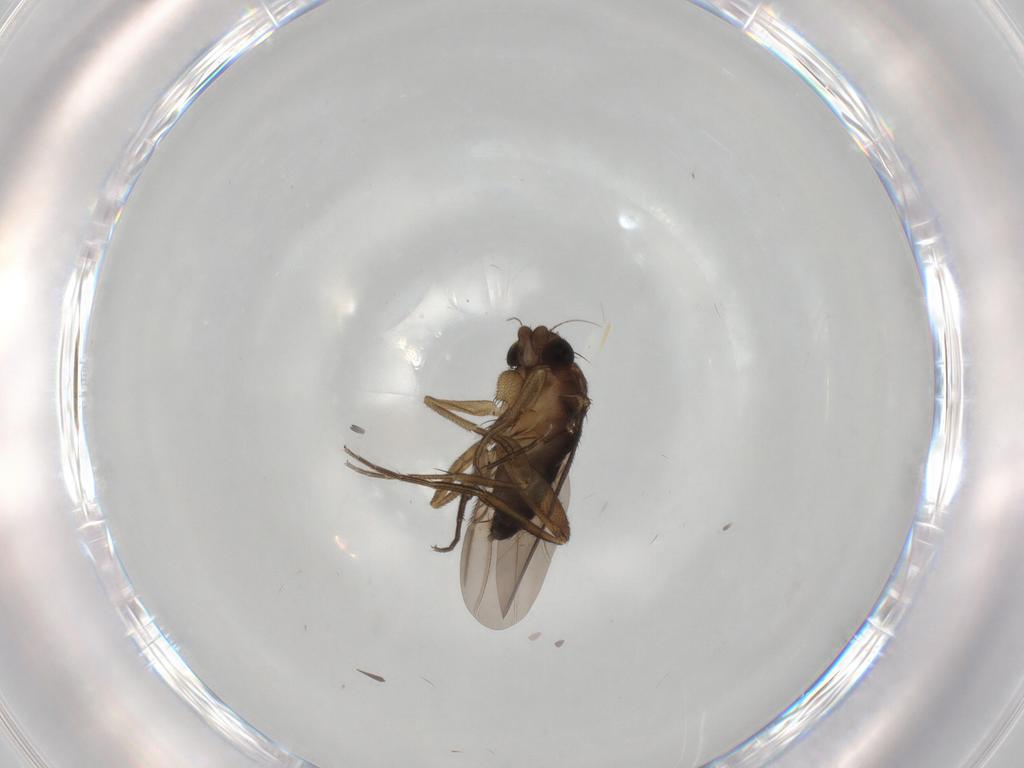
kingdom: Animalia
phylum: Arthropoda
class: Insecta
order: Diptera
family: Phoridae
